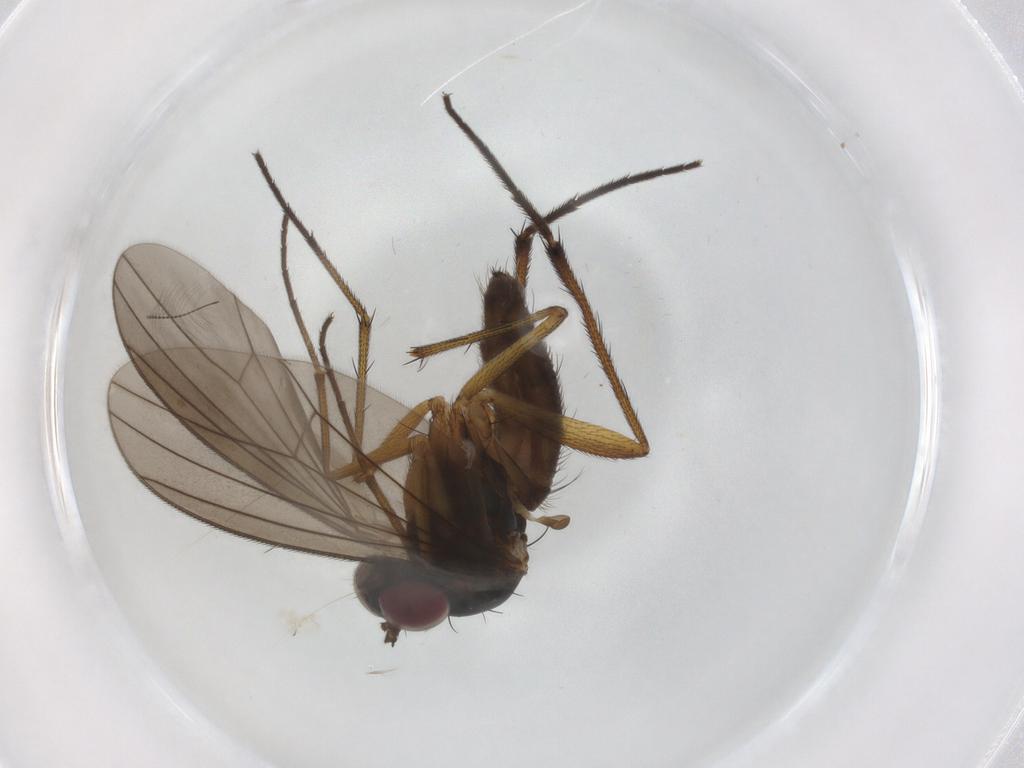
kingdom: Animalia
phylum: Arthropoda
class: Insecta
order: Diptera
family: Dolichopodidae
